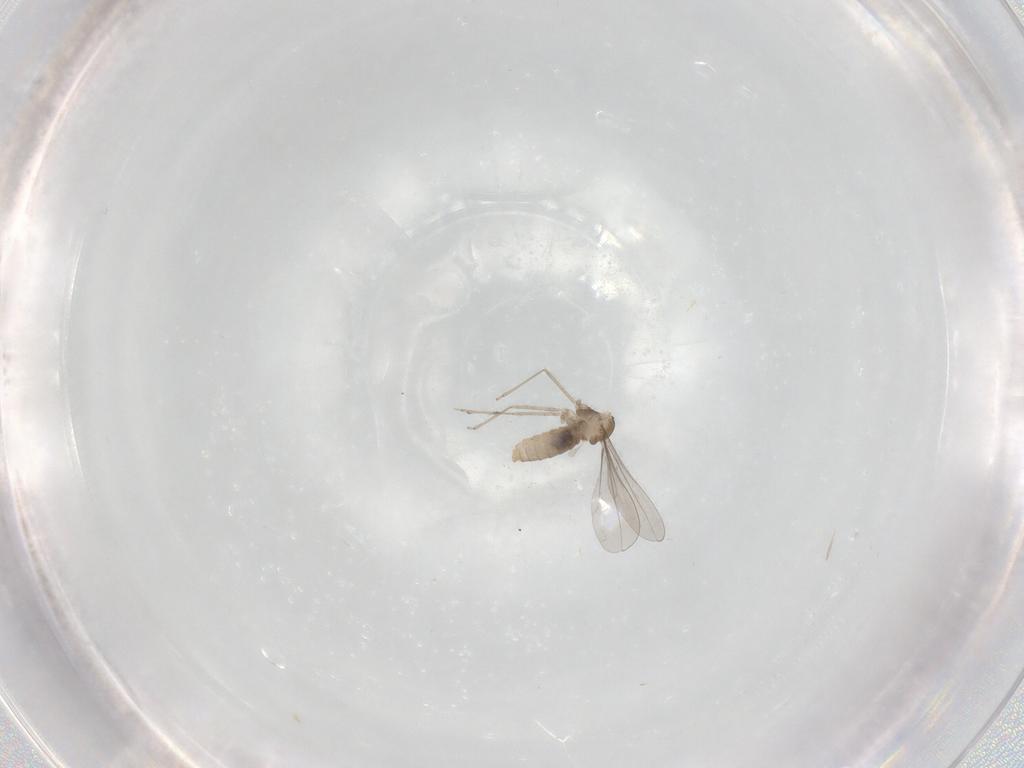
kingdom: Animalia
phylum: Arthropoda
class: Insecta
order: Diptera
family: Cecidomyiidae
